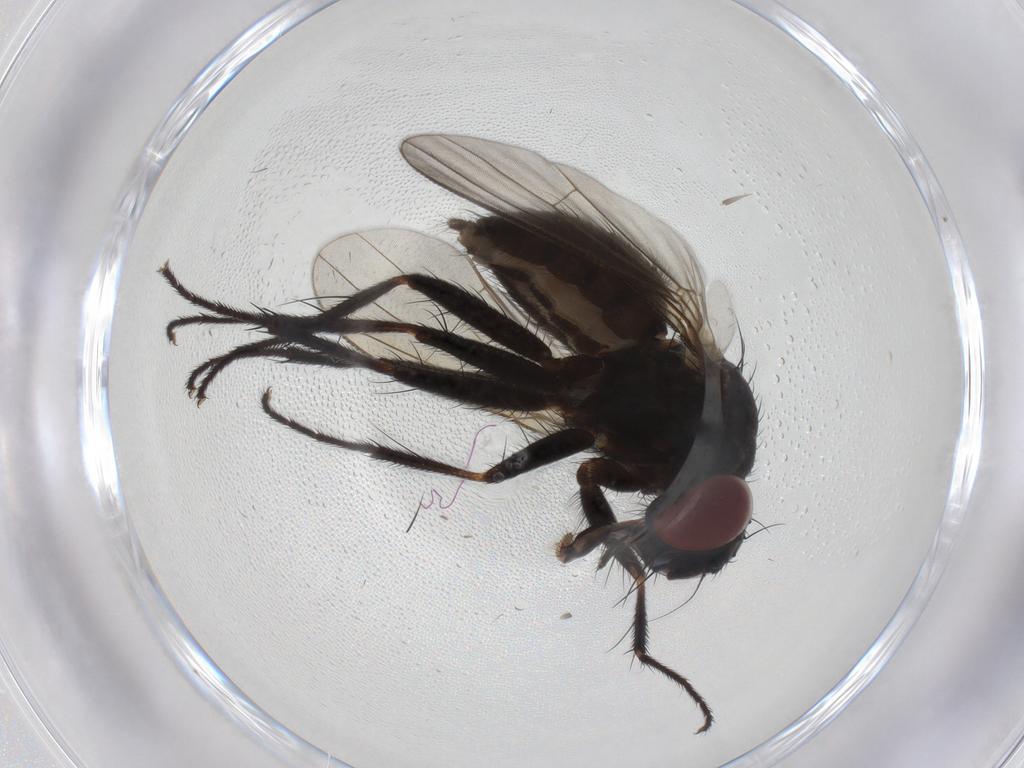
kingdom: Animalia
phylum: Arthropoda
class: Insecta
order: Diptera
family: Ceratopogonidae
